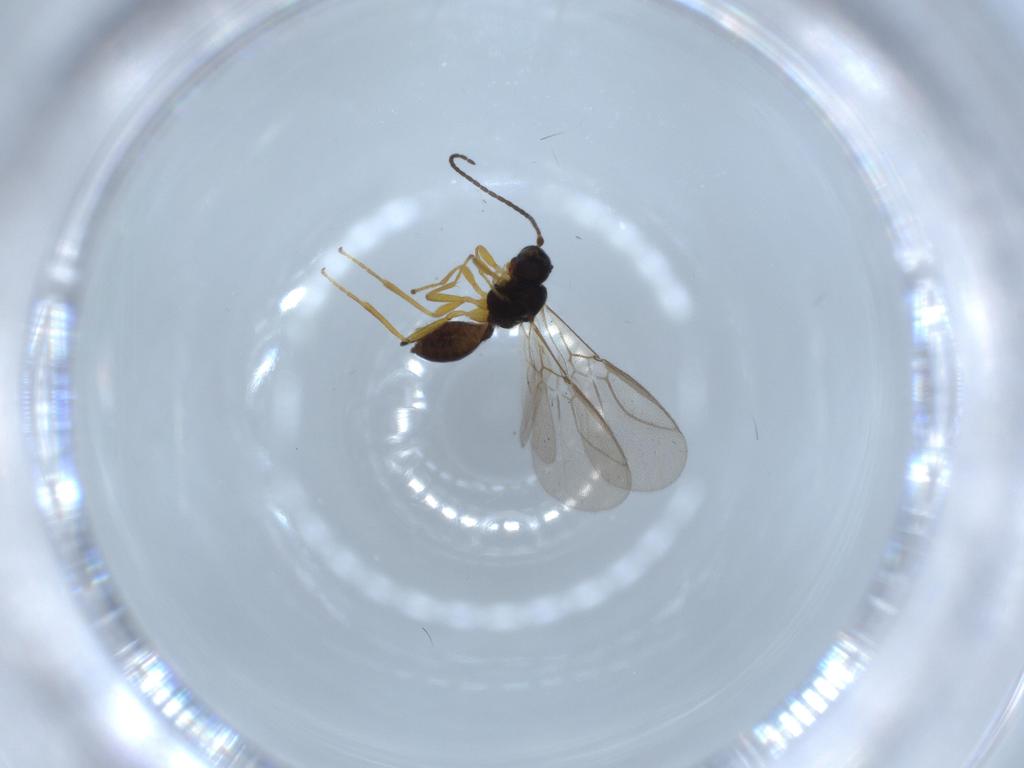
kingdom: Animalia
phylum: Arthropoda
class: Insecta
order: Hymenoptera
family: Braconidae
